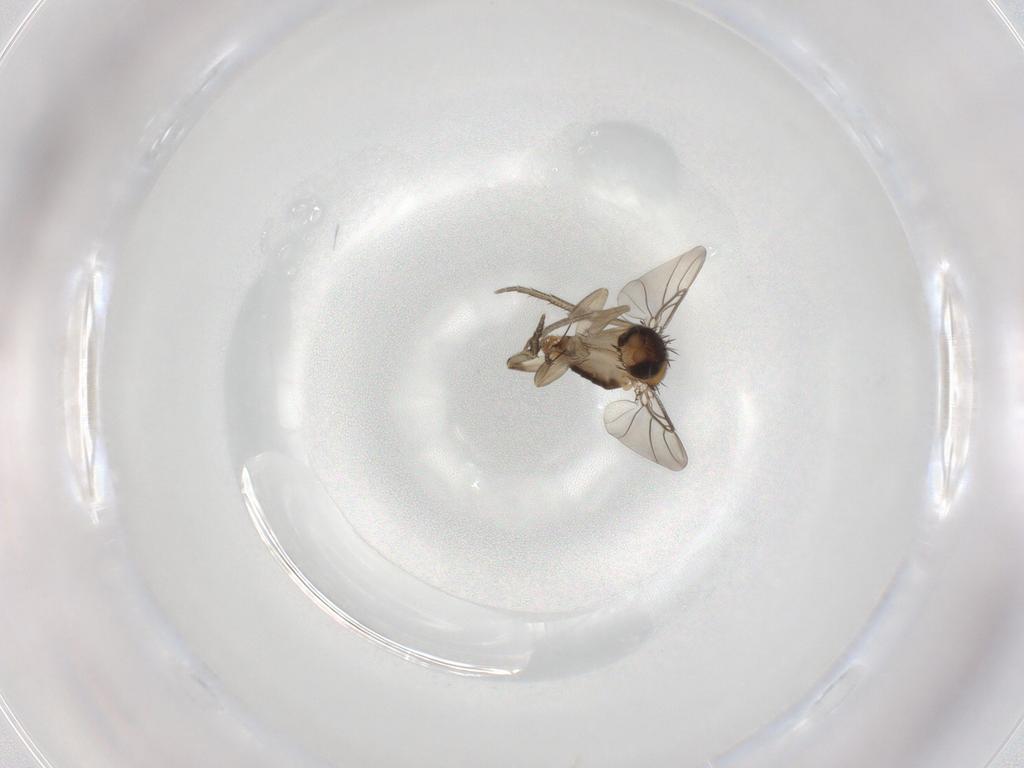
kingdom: Animalia
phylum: Arthropoda
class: Insecta
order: Diptera
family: Phoridae
